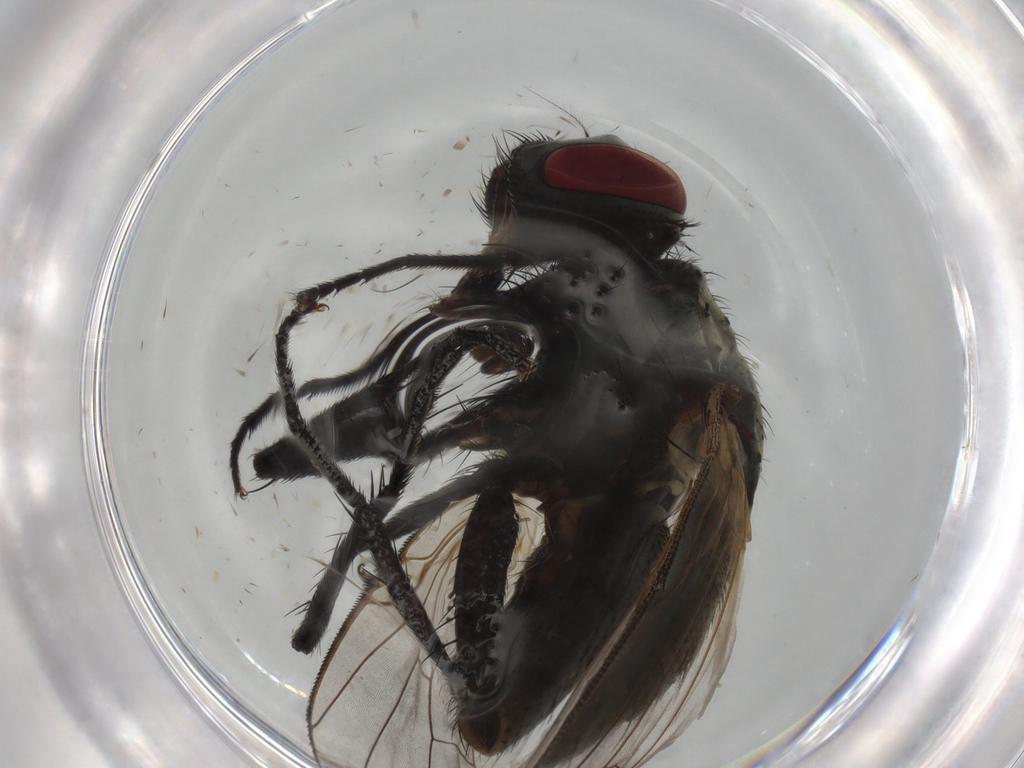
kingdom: Animalia
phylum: Arthropoda
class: Insecta
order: Diptera
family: Muscidae
